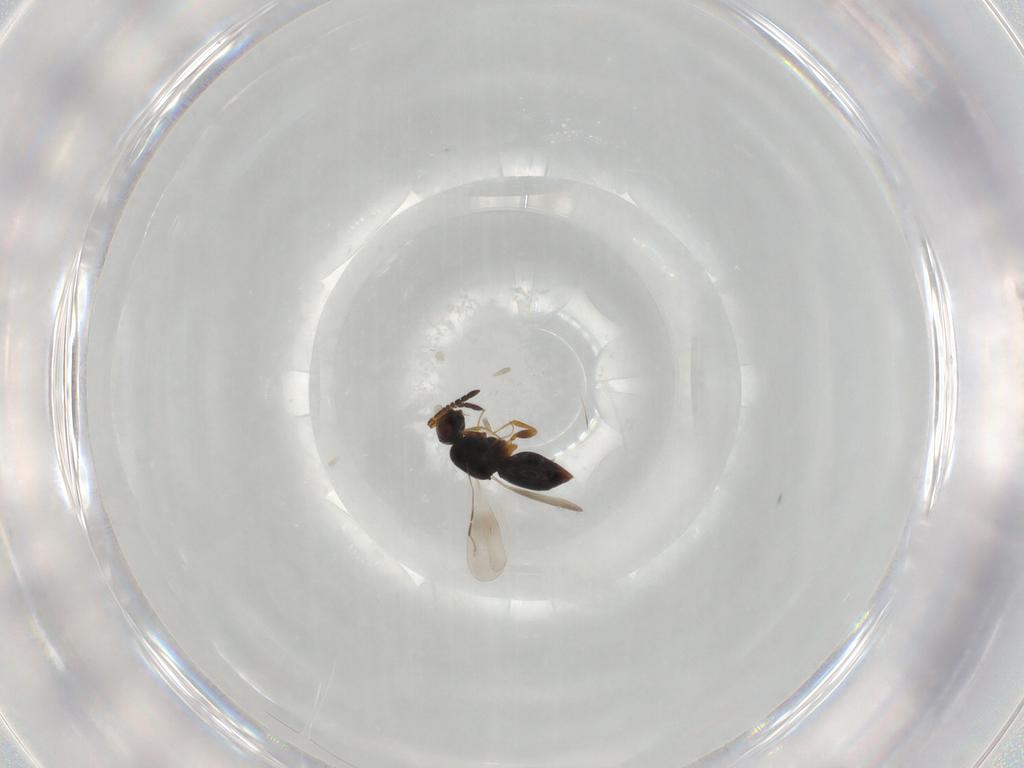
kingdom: Animalia
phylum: Arthropoda
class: Insecta
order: Hymenoptera
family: Ceraphronidae
